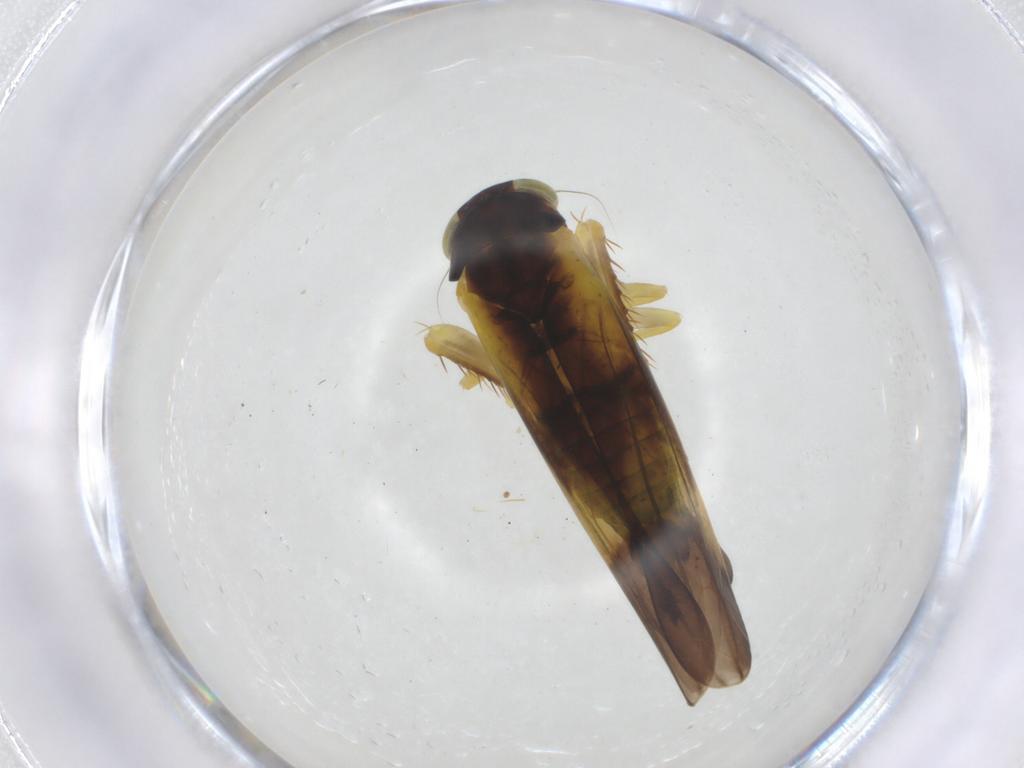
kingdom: Animalia
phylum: Arthropoda
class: Insecta
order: Hemiptera
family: Cicadellidae
